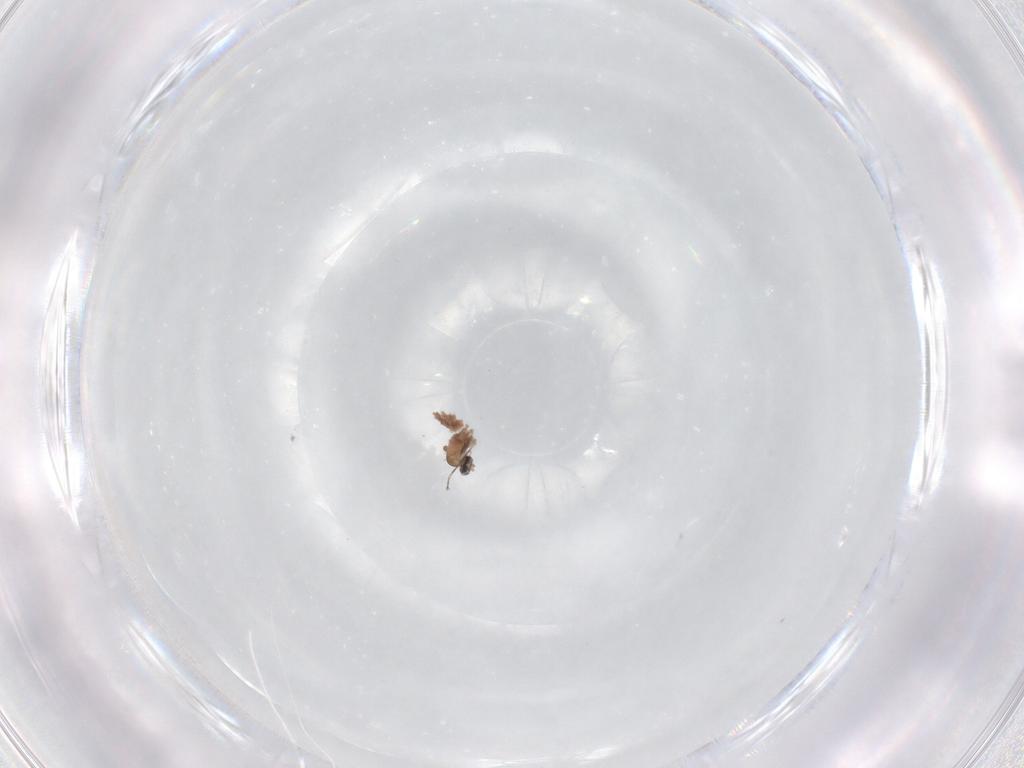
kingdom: Animalia
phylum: Arthropoda
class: Insecta
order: Diptera
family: Cecidomyiidae
